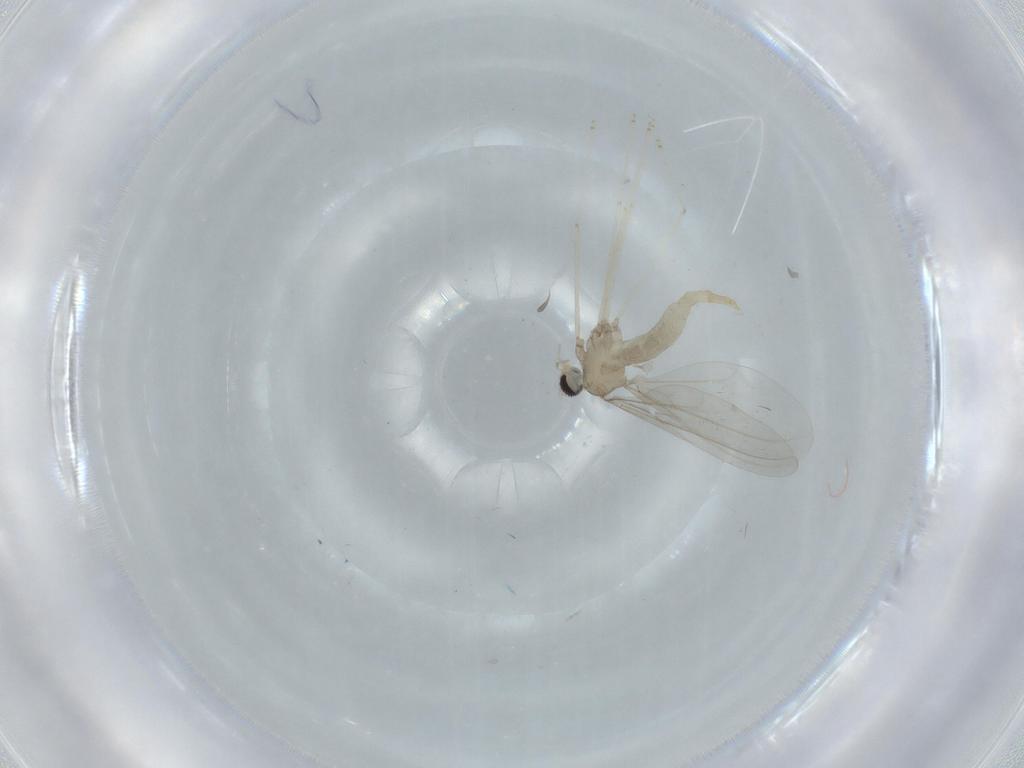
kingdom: Animalia
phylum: Arthropoda
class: Insecta
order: Diptera
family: Cecidomyiidae
